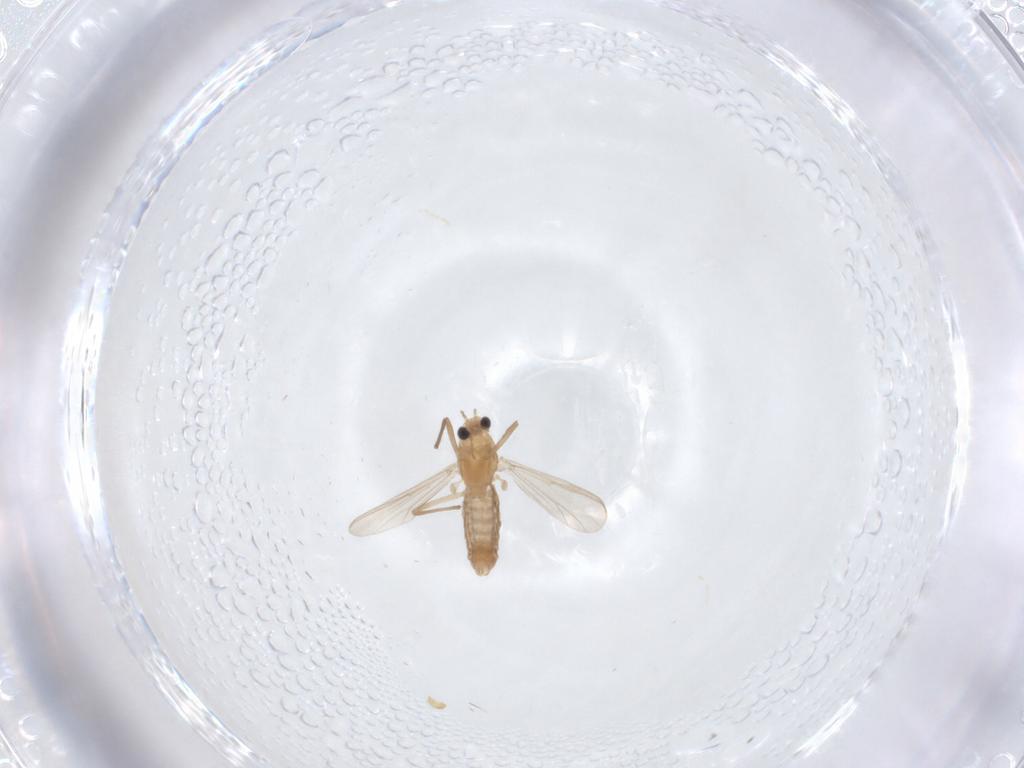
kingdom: Animalia
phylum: Arthropoda
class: Insecta
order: Diptera
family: Chironomidae
